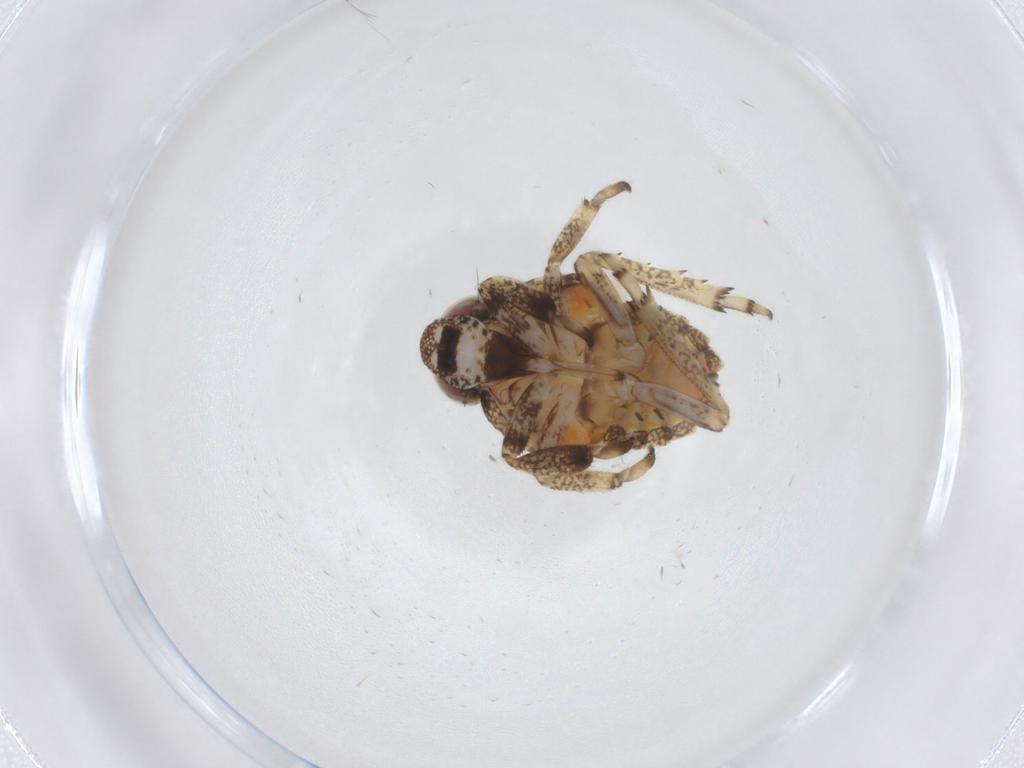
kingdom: Animalia
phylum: Arthropoda
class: Insecta
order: Hemiptera
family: Issidae
